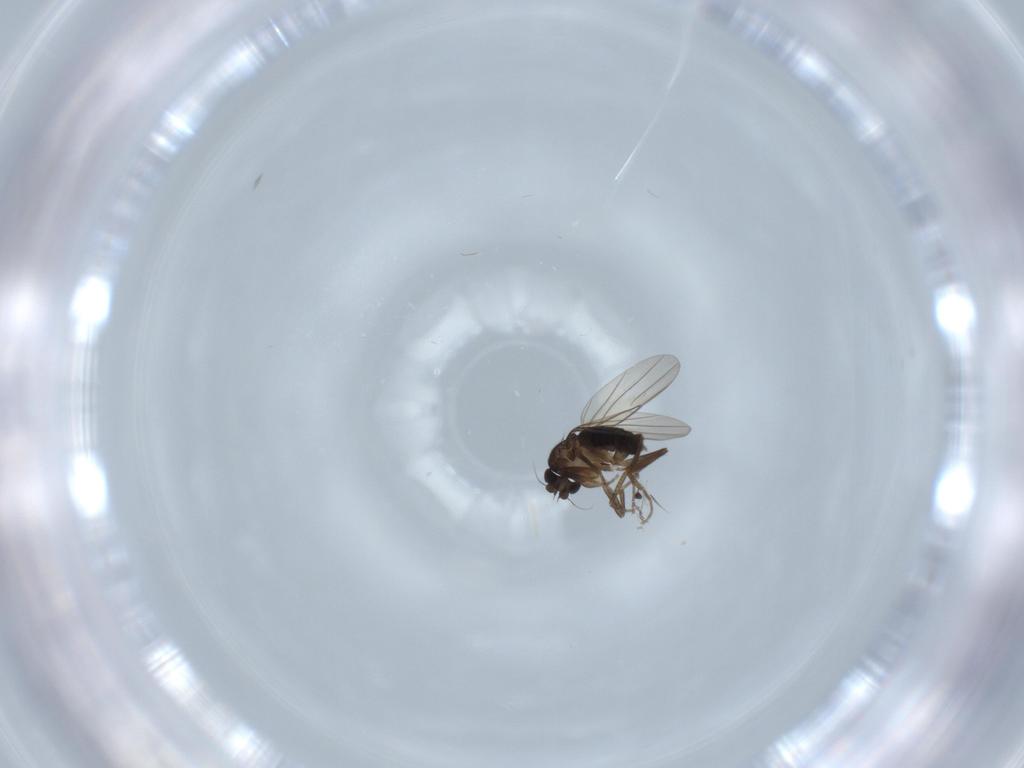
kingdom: Animalia
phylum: Arthropoda
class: Insecta
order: Diptera
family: Phoridae
